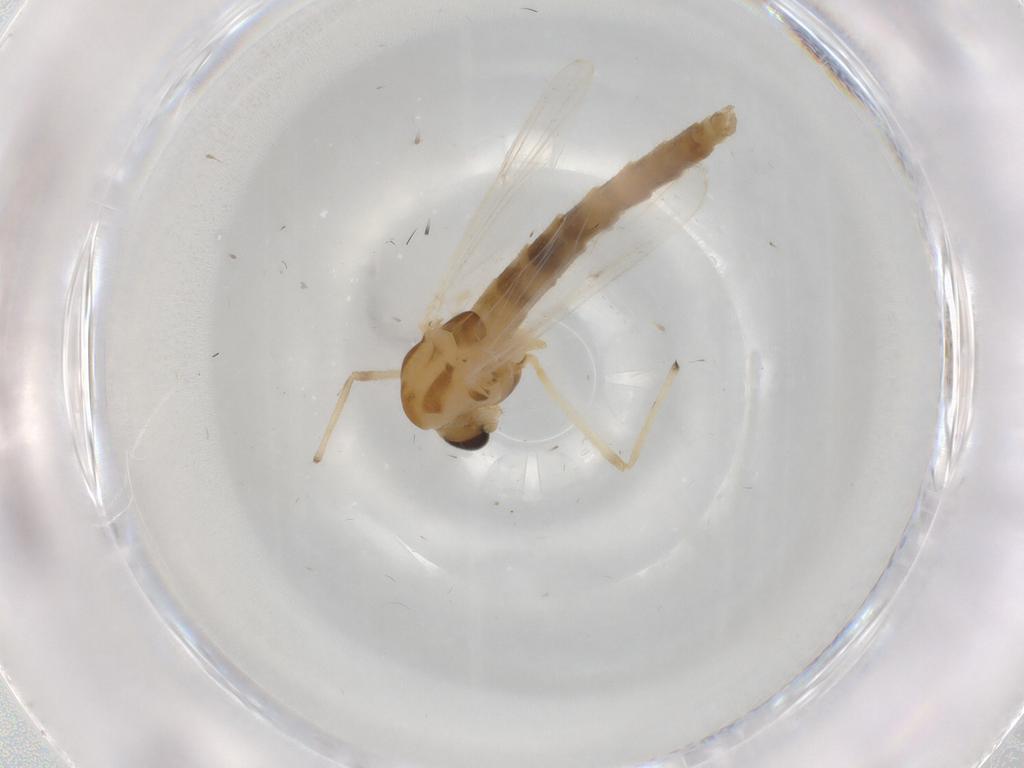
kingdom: Animalia
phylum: Arthropoda
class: Insecta
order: Diptera
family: Chironomidae
